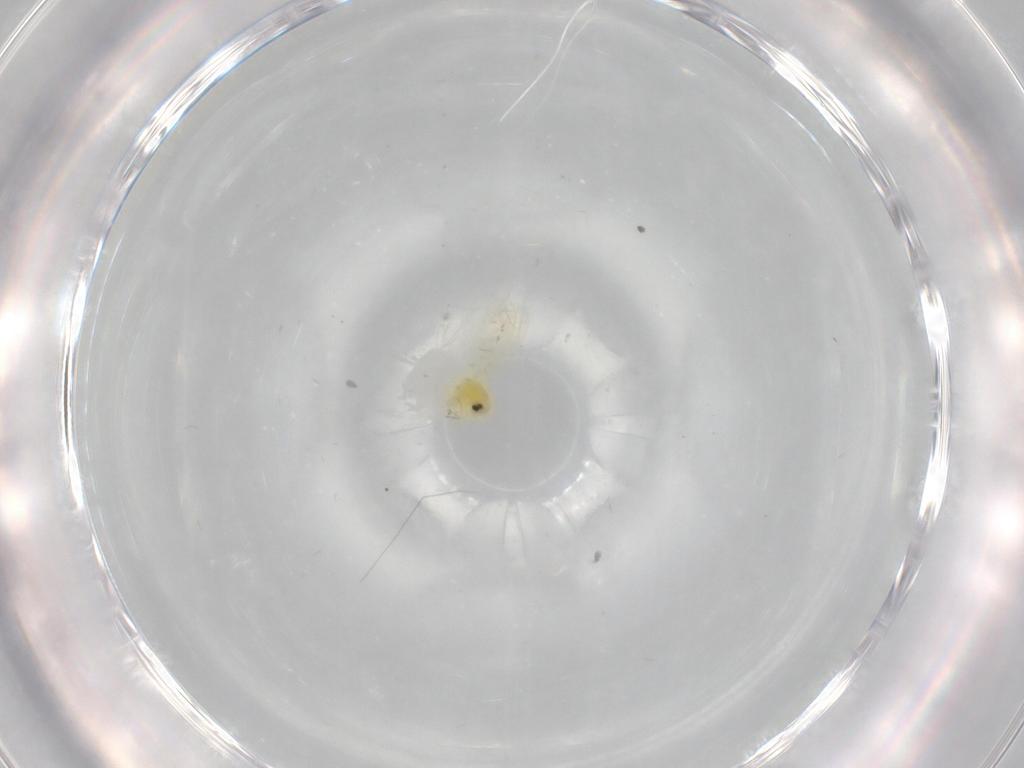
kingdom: Animalia
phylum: Arthropoda
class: Insecta
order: Hemiptera
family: Aleyrodidae
